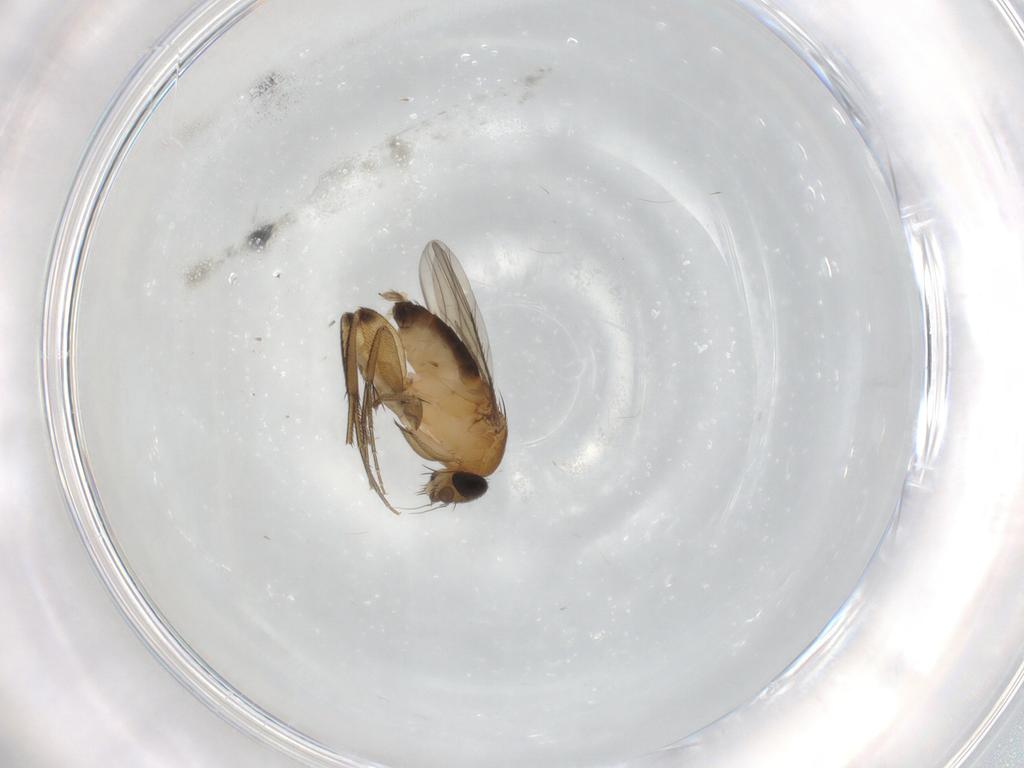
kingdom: Animalia
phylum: Arthropoda
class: Insecta
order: Diptera
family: Phoridae
